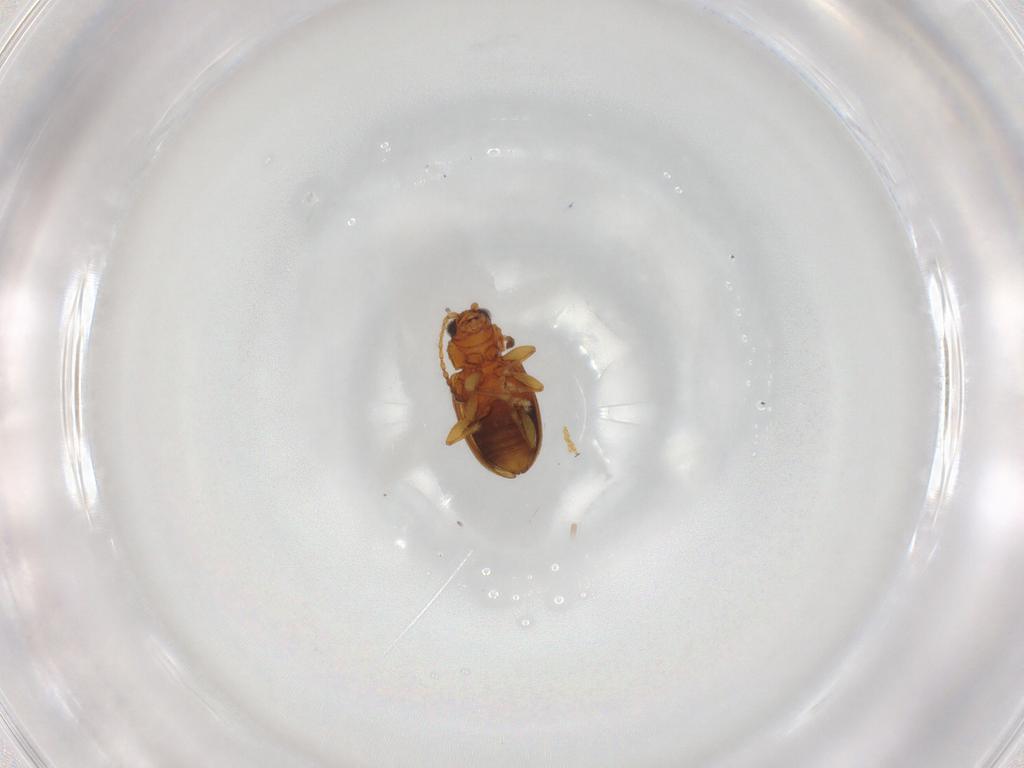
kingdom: Animalia
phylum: Arthropoda
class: Insecta
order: Coleoptera
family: Chrysomelidae
